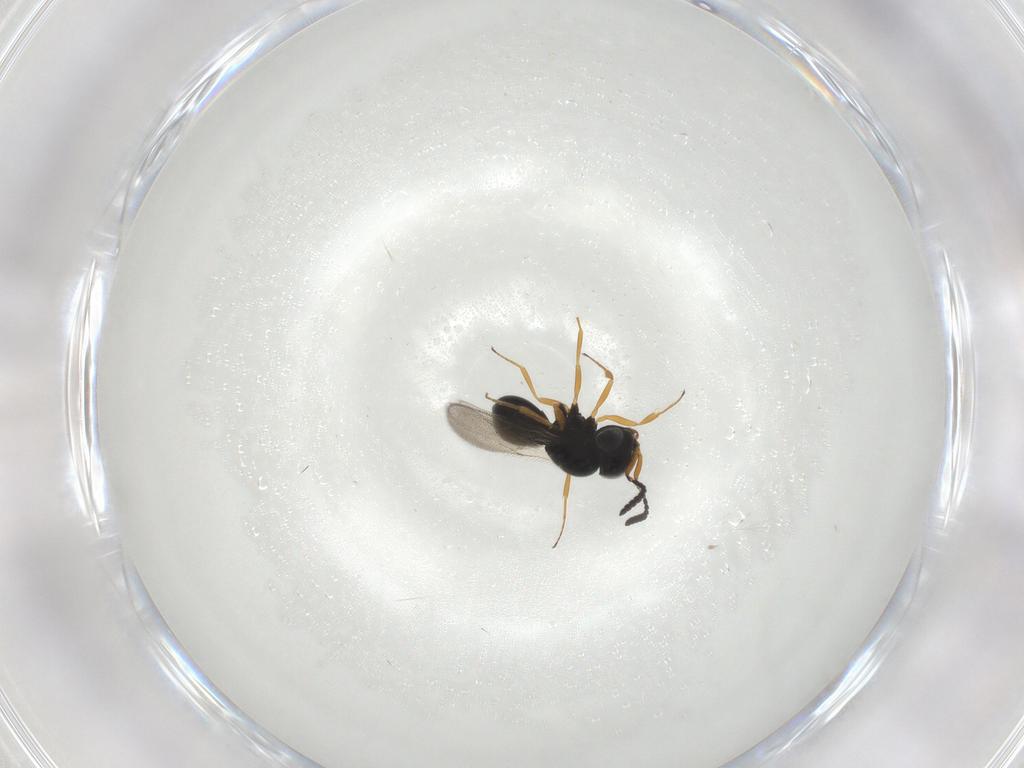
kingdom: Animalia
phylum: Arthropoda
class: Insecta
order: Hymenoptera
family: Scelionidae
